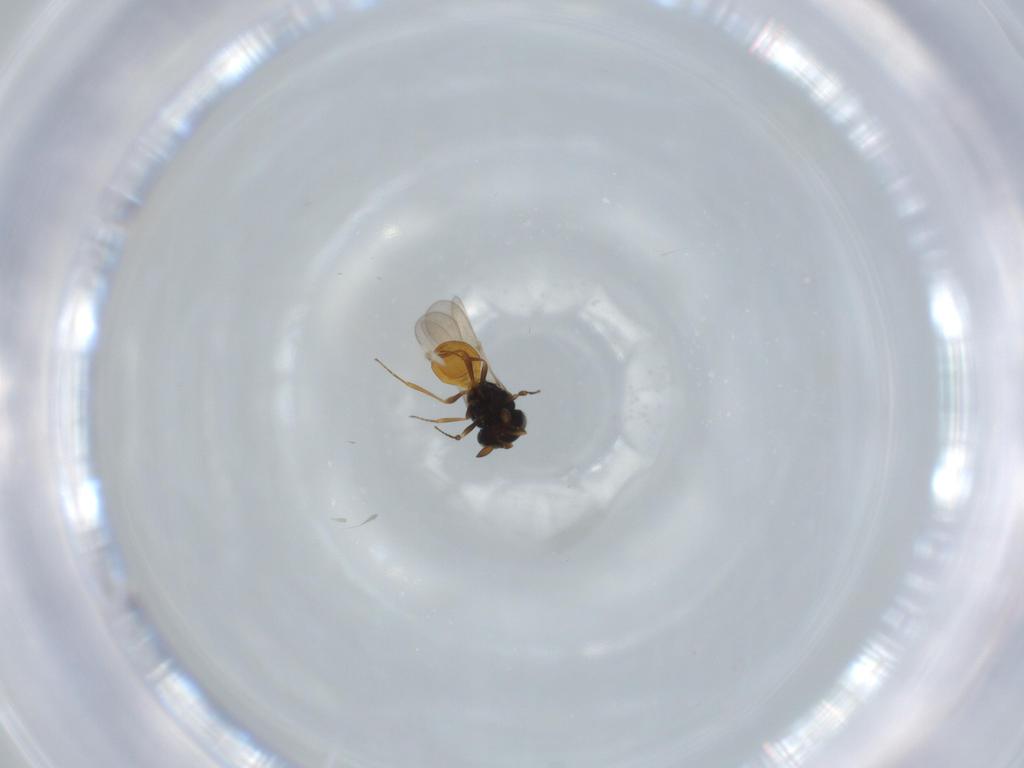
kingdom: Animalia
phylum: Arthropoda
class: Insecta
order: Hymenoptera
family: Scelionidae
